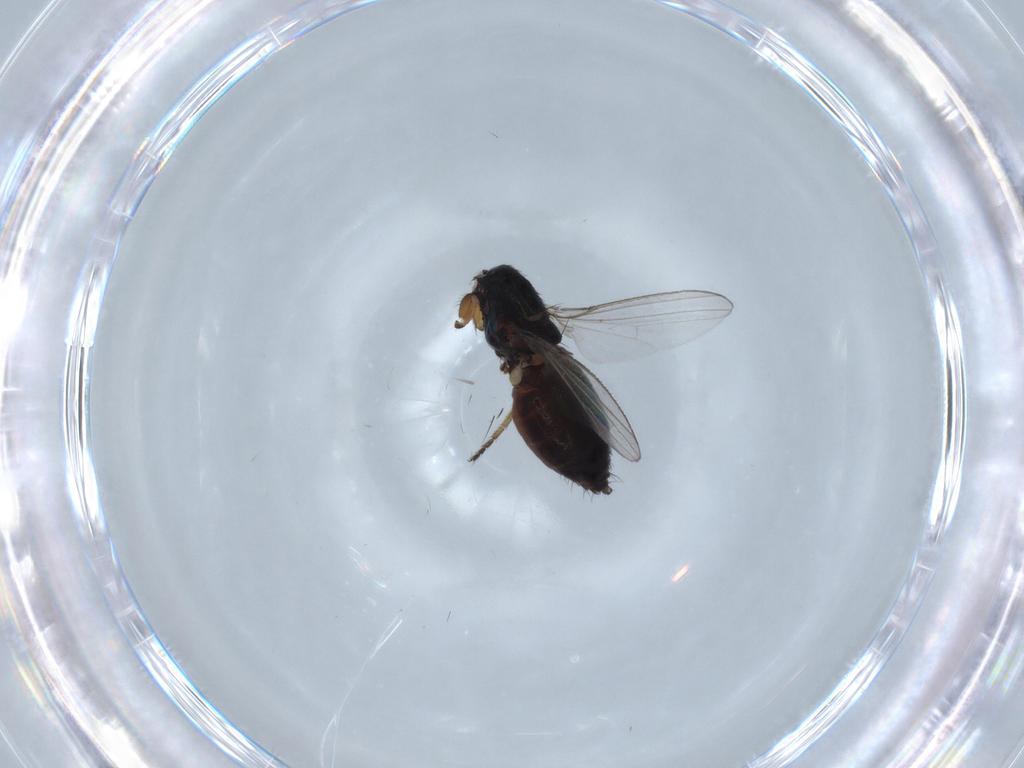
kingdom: Animalia
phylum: Arthropoda
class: Insecta
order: Diptera
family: Milichiidae
